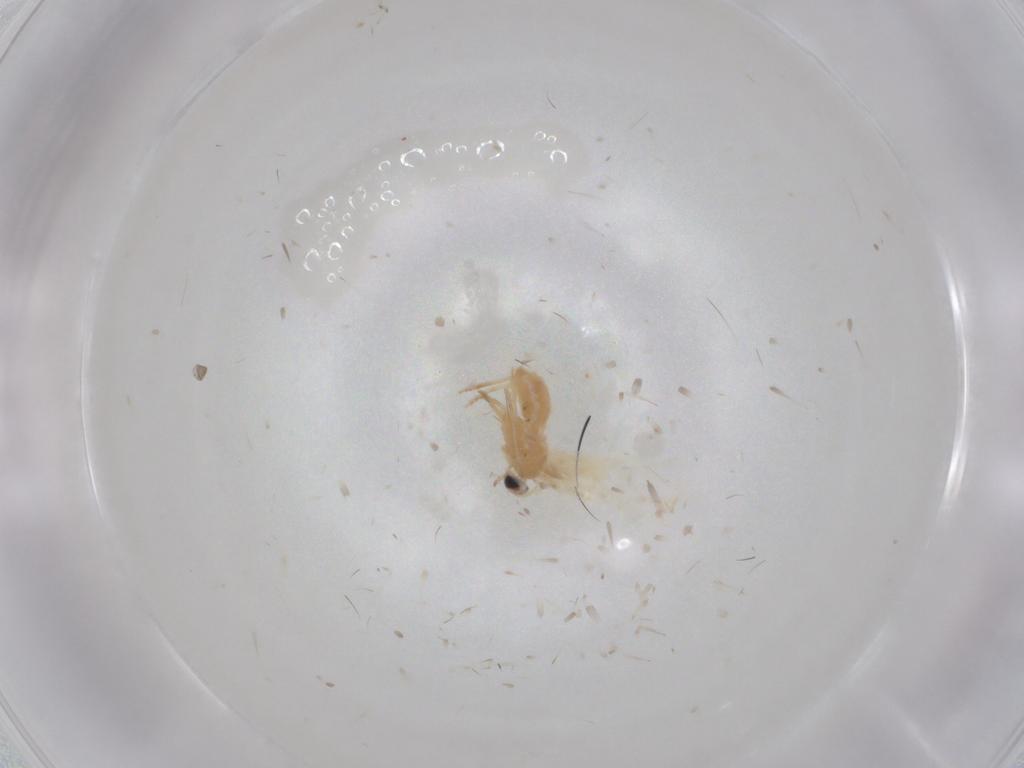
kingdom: Animalia
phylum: Arthropoda
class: Insecta
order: Lepidoptera
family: Nepticulidae
